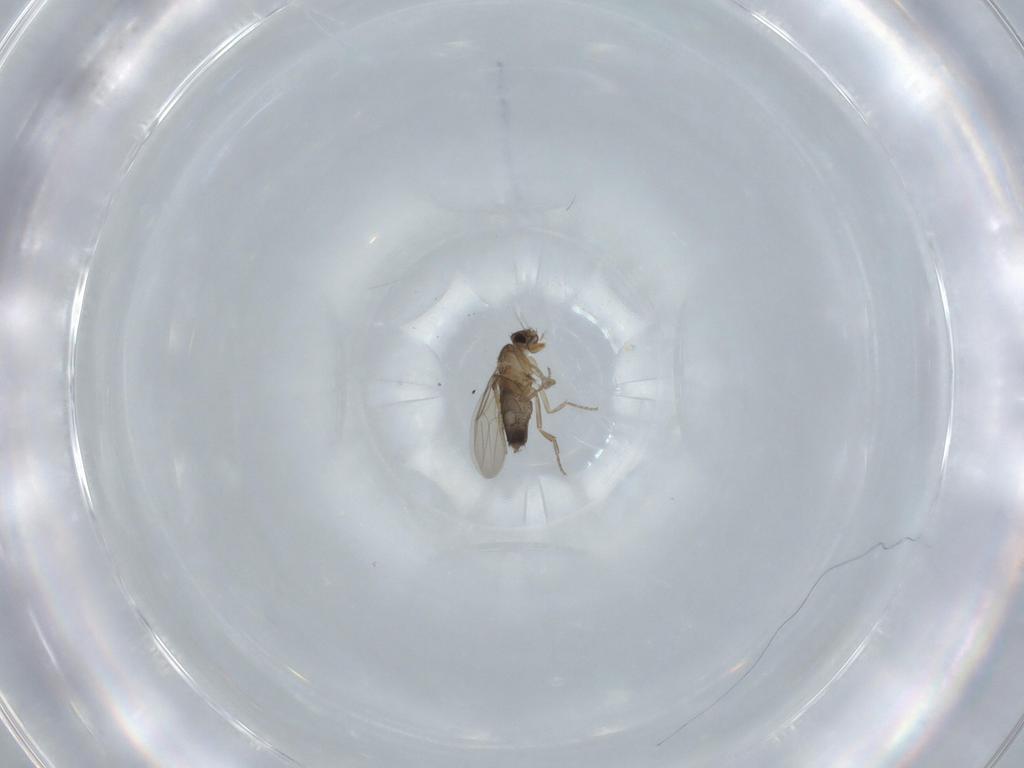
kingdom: Animalia
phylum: Arthropoda
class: Insecta
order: Diptera
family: Phoridae
